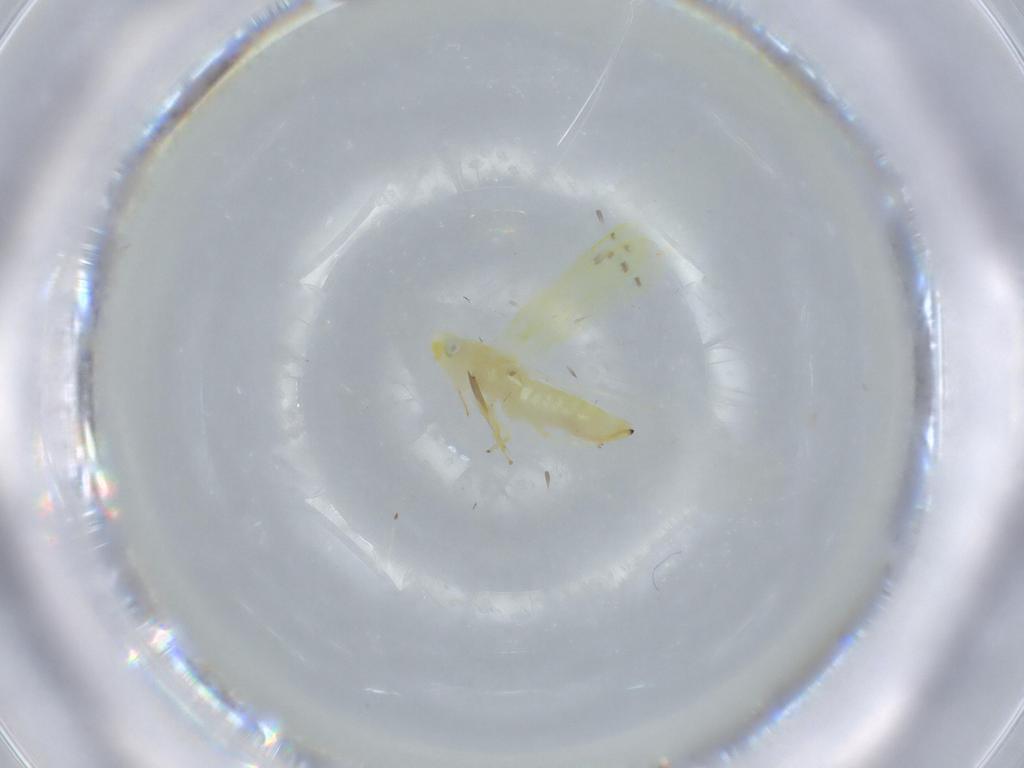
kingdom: Animalia
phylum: Arthropoda
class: Insecta
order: Hemiptera
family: Cicadellidae
